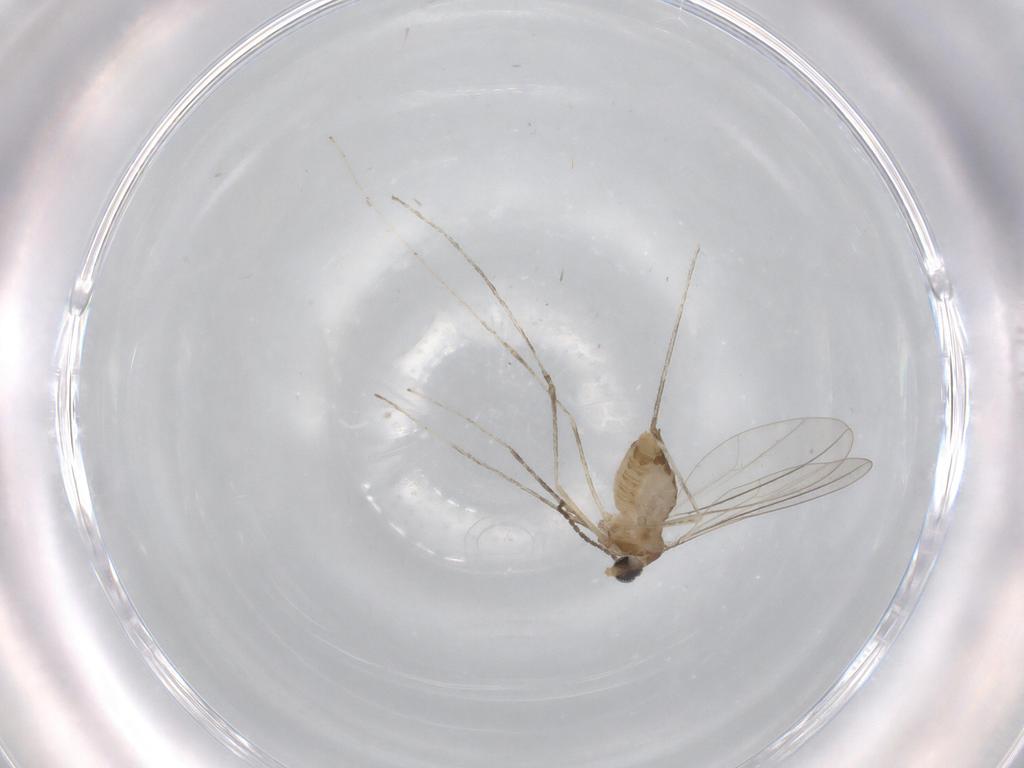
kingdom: Animalia
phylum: Arthropoda
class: Insecta
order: Diptera
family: Cecidomyiidae
